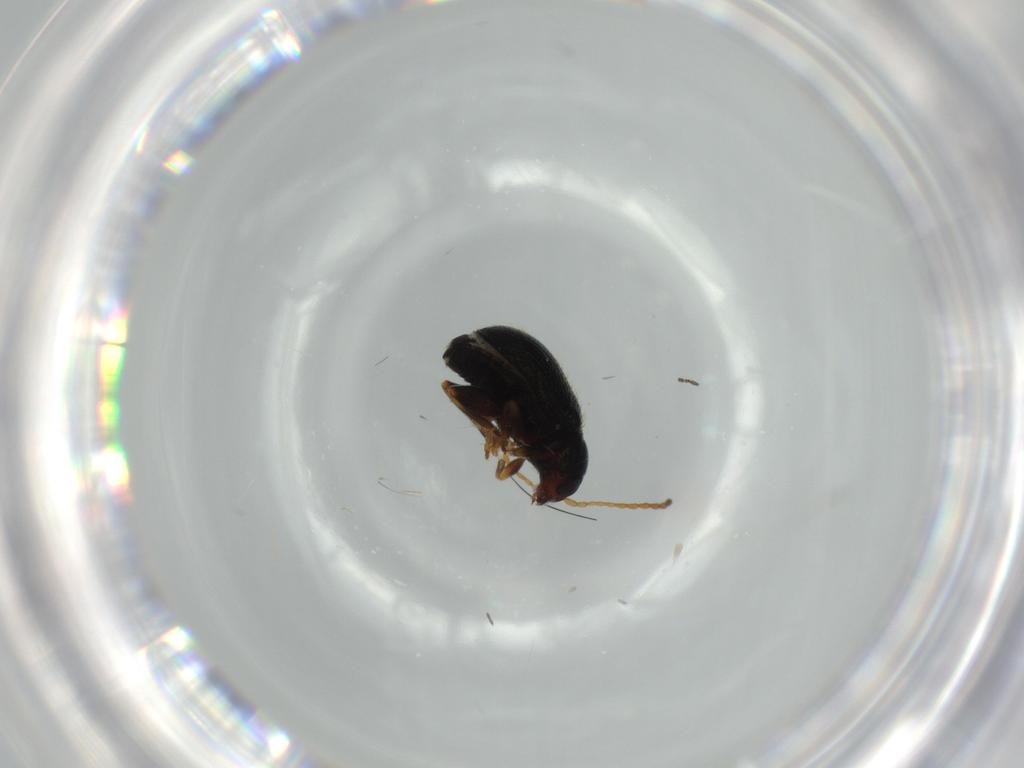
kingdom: Animalia
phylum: Arthropoda
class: Insecta
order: Coleoptera
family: Chrysomelidae
